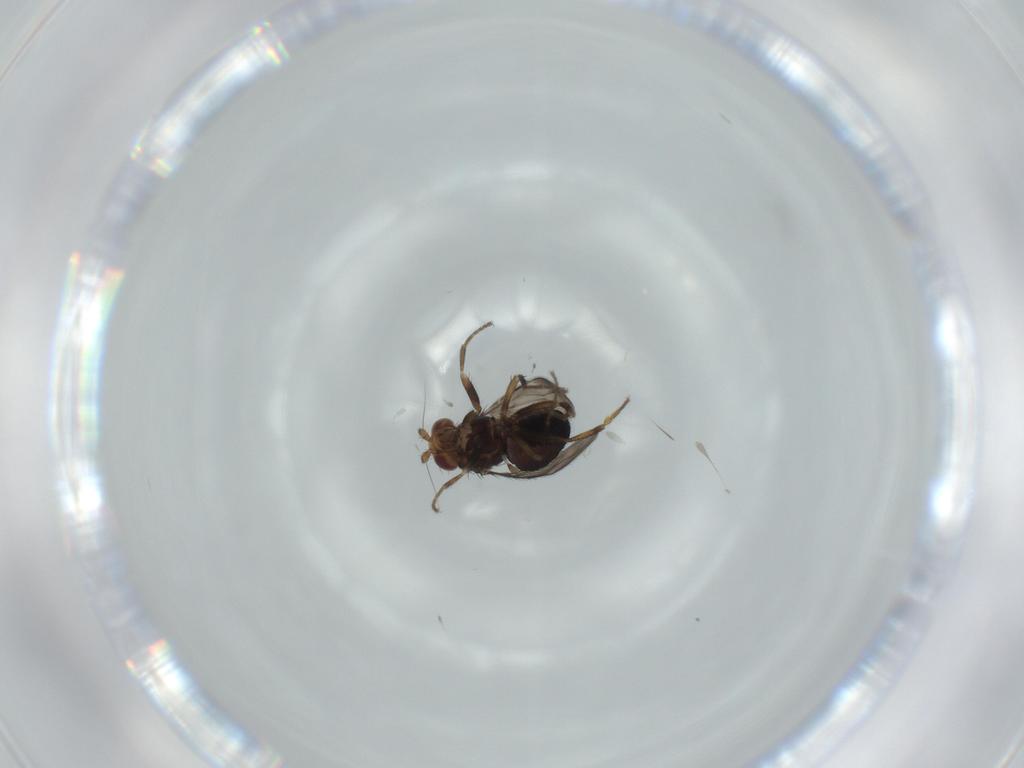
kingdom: Animalia
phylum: Arthropoda
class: Insecta
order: Diptera
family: Sphaeroceridae
